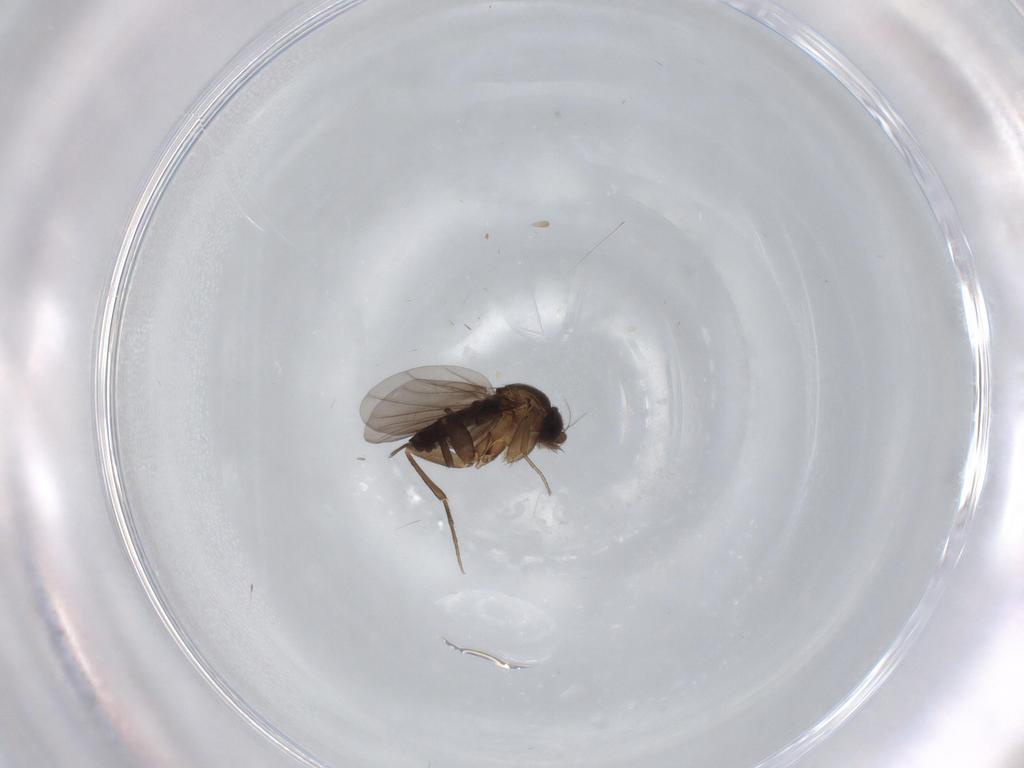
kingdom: Animalia
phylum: Arthropoda
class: Insecta
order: Diptera
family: Phoridae
